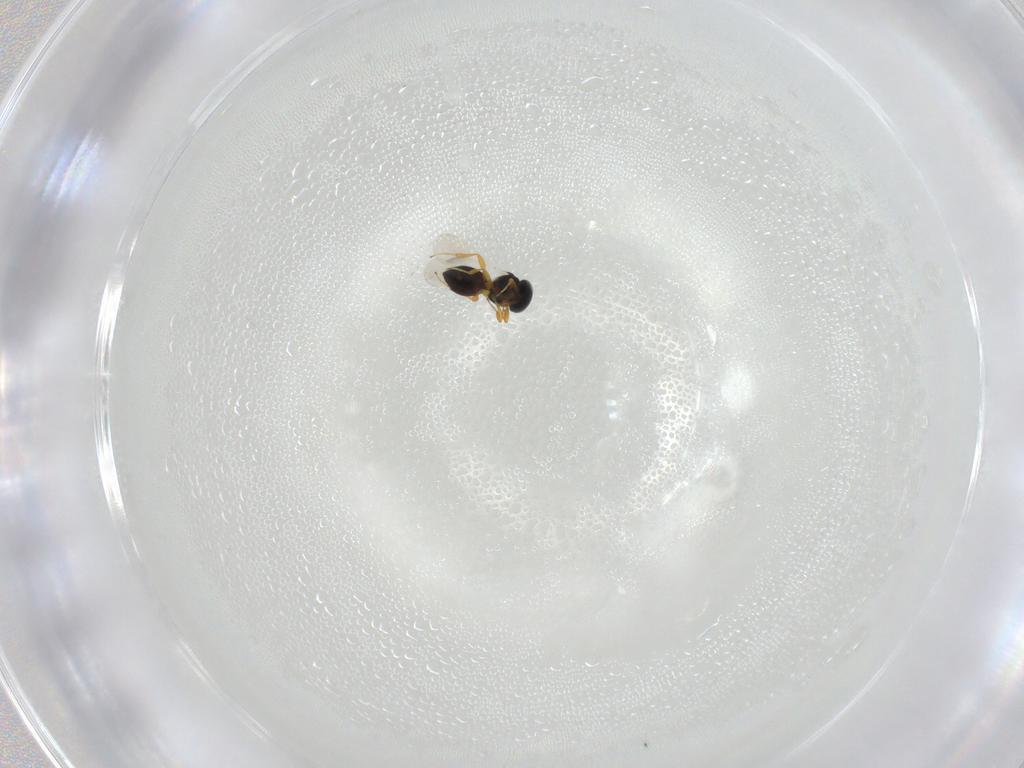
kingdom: Animalia
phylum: Arthropoda
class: Insecta
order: Hymenoptera
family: Platygastridae
